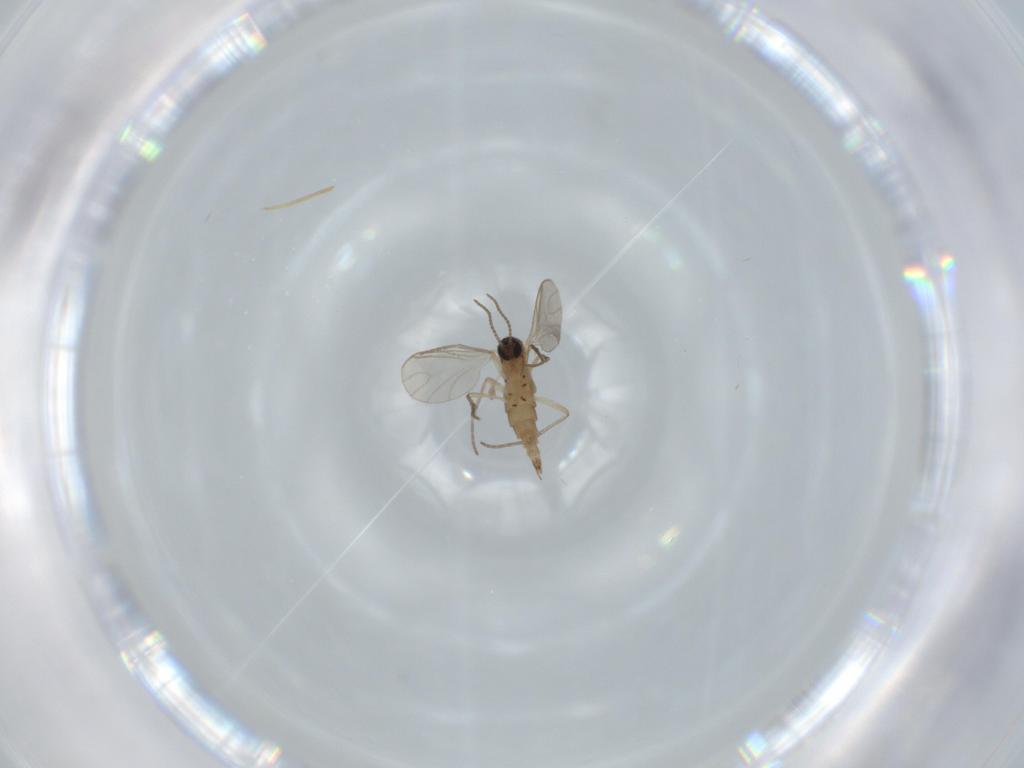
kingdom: Animalia
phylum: Arthropoda
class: Insecta
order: Diptera
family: Sciaridae
